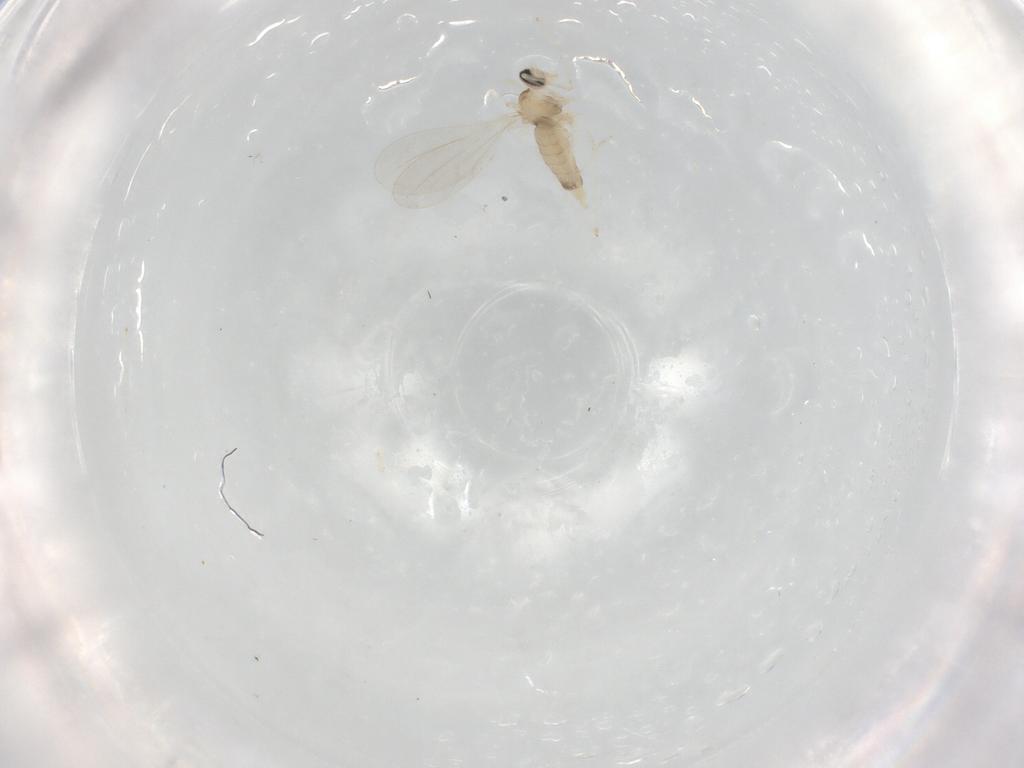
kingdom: Animalia
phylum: Arthropoda
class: Insecta
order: Diptera
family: Cecidomyiidae
